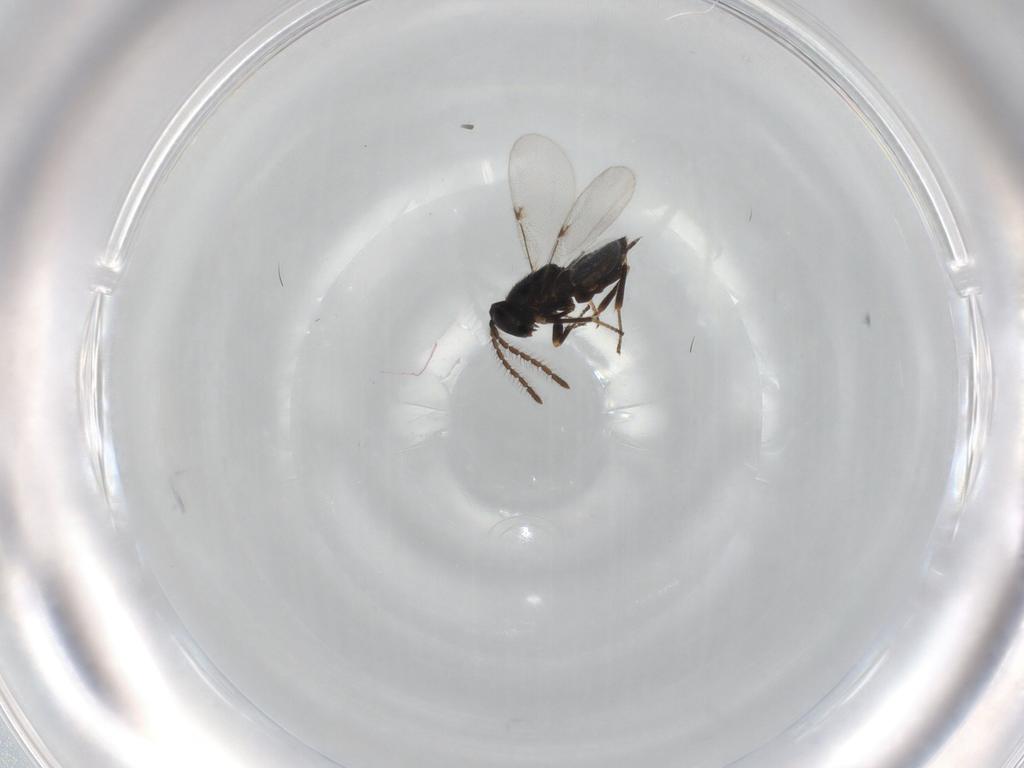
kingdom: Animalia
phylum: Arthropoda
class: Insecta
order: Hymenoptera
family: Encyrtidae
